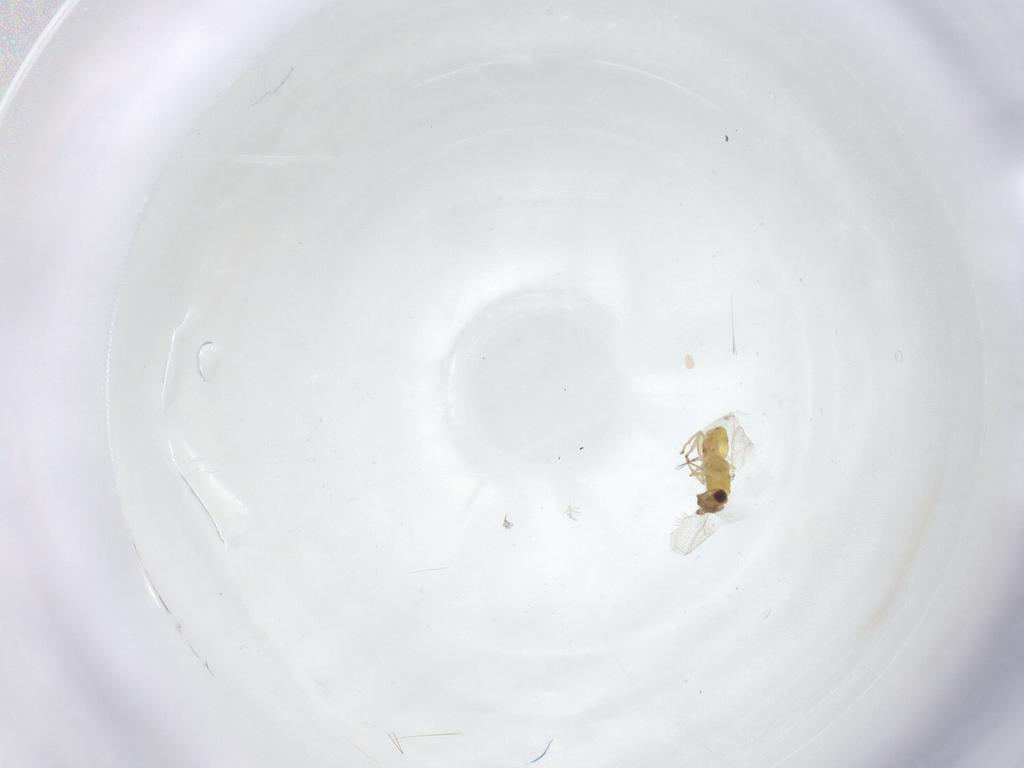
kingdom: Animalia
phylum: Arthropoda
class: Insecta
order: Hymenoptera
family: Eulophidae
